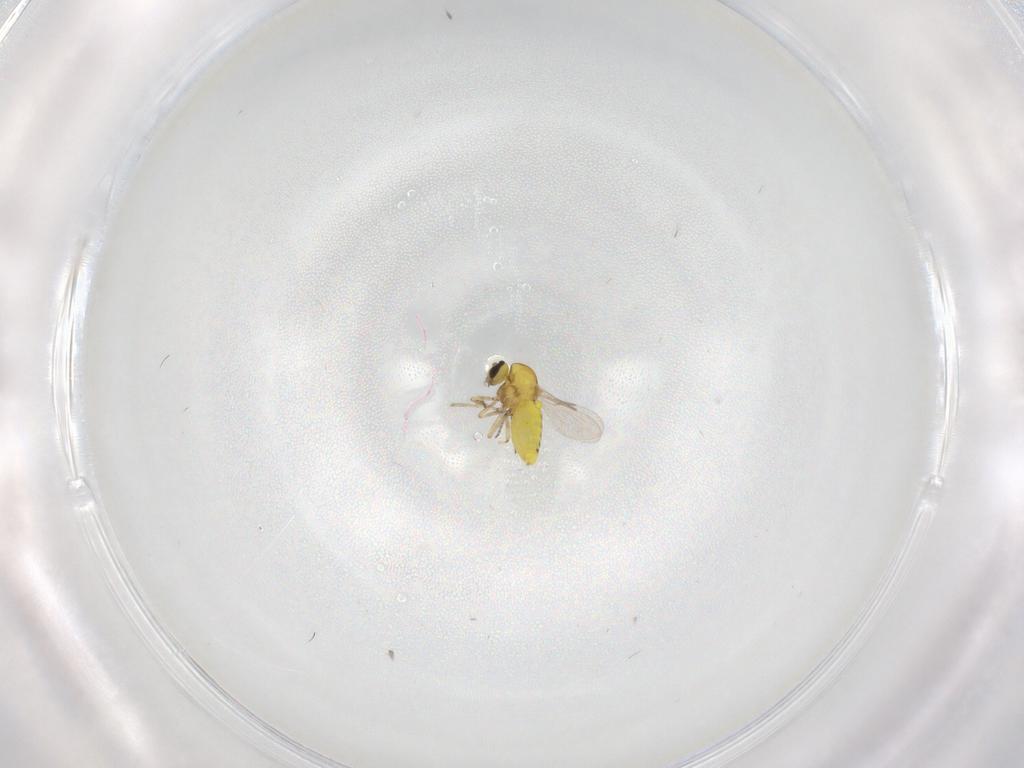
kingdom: Animalia
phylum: Arthropoda
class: Insecta
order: Diptera
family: Ceratopogonidae
